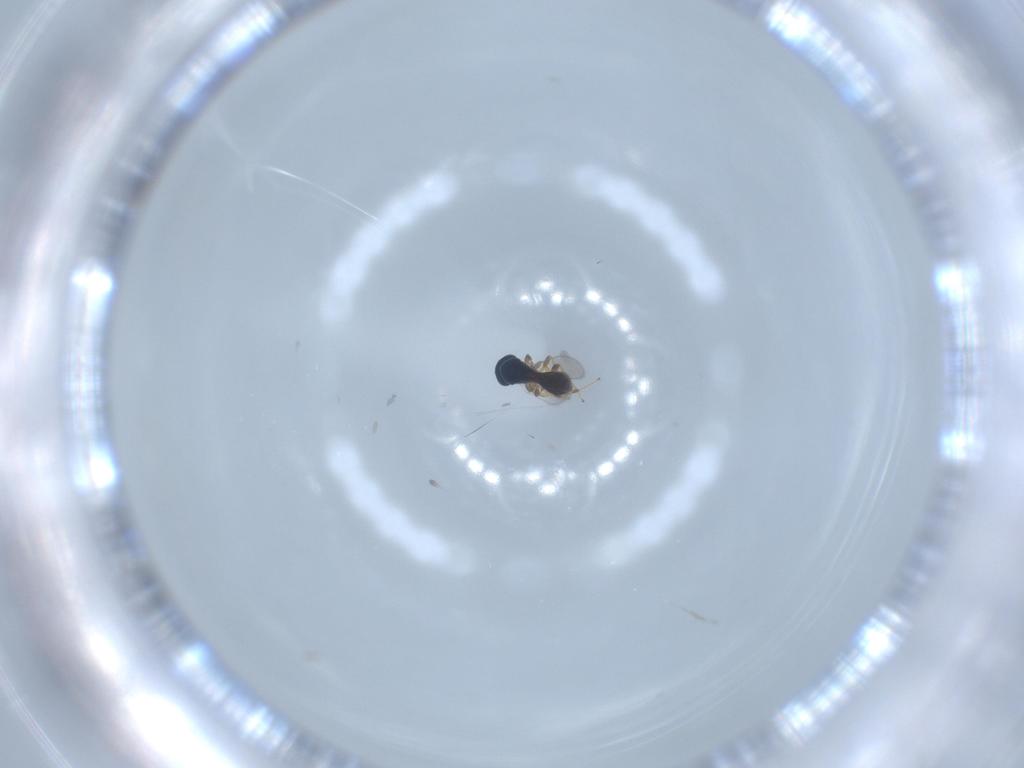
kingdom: Animalia
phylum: Arthropoda
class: Insecta
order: Hymenoptera
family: Platygastridae
